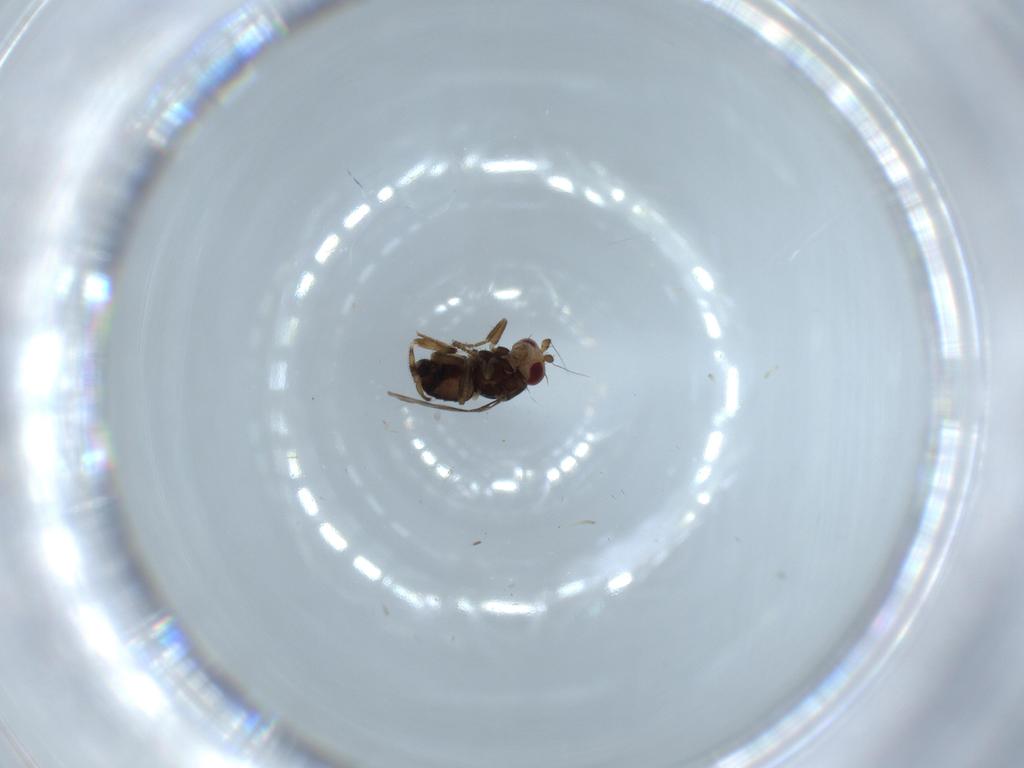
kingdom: Animalia
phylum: Arthropoda
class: Insecta
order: Diptera
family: Sphaeroceridae
